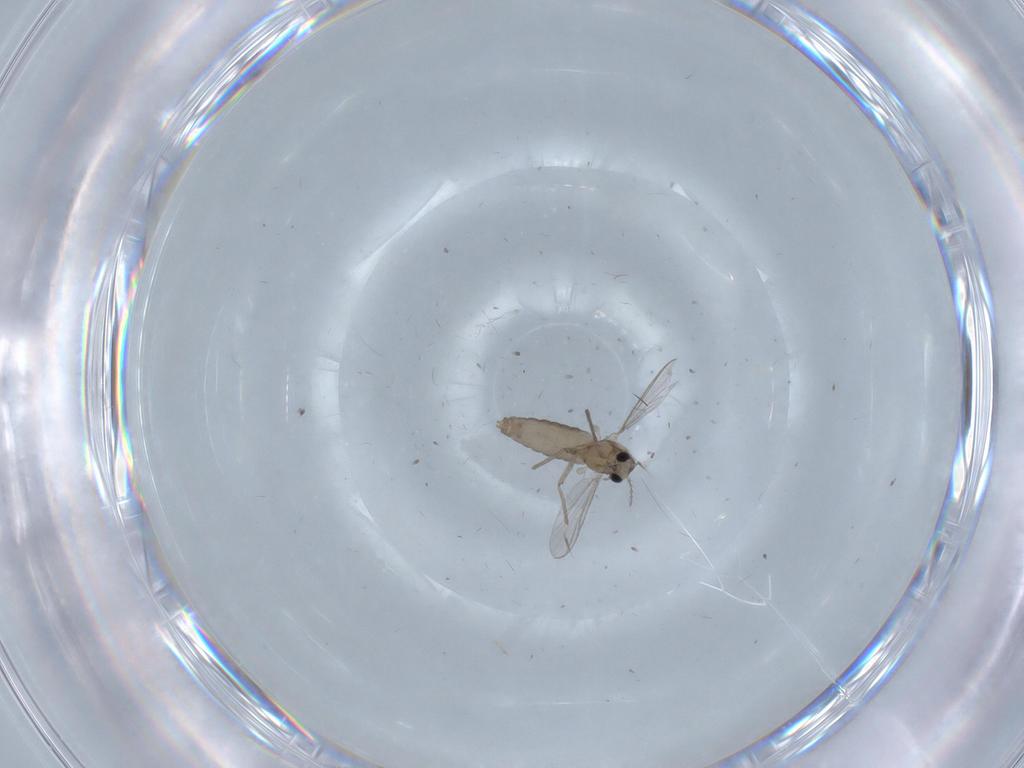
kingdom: Animalia
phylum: Arthropoda
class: Insecta
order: Diptera
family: Chironomidae
